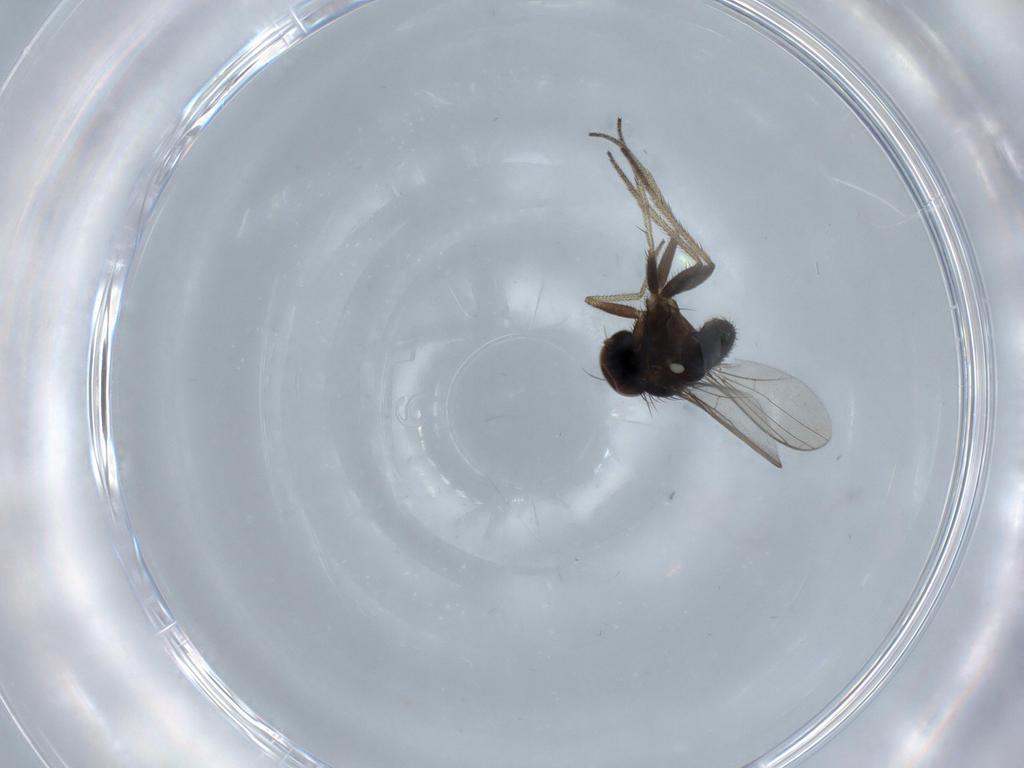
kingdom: Animalia
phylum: Arthropoda
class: Insecta
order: Diptera
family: Dolichopodidae
